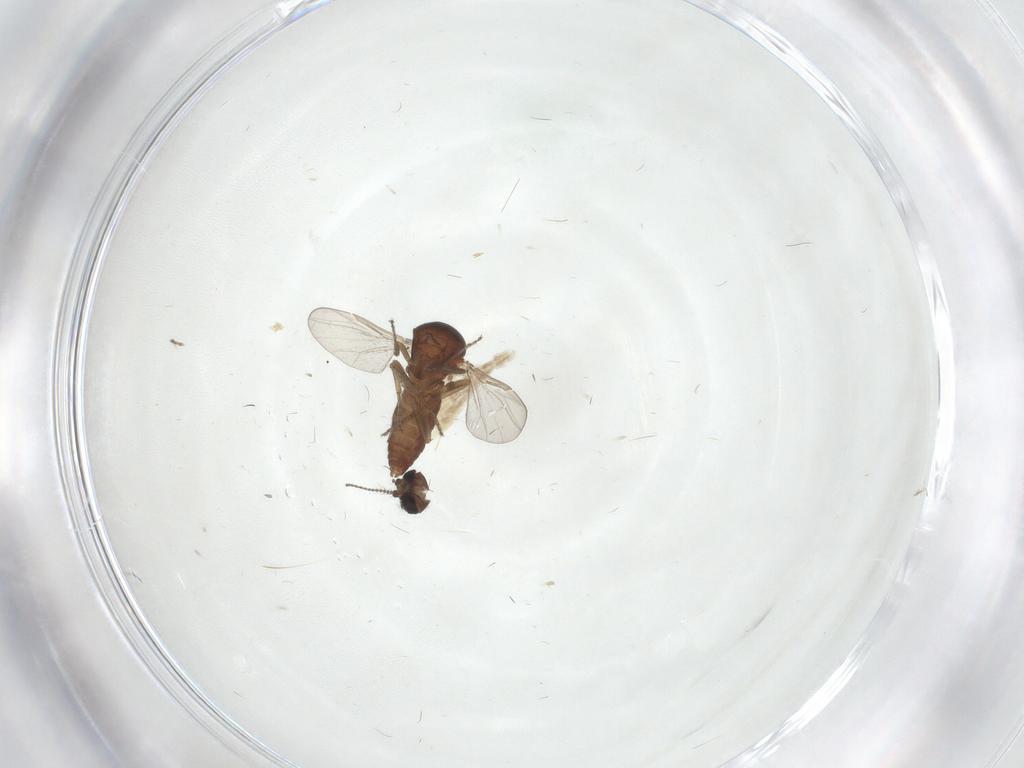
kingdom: Animalia
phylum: Arthropoda
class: Insecta
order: Diptera
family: Ceratopogonidae
